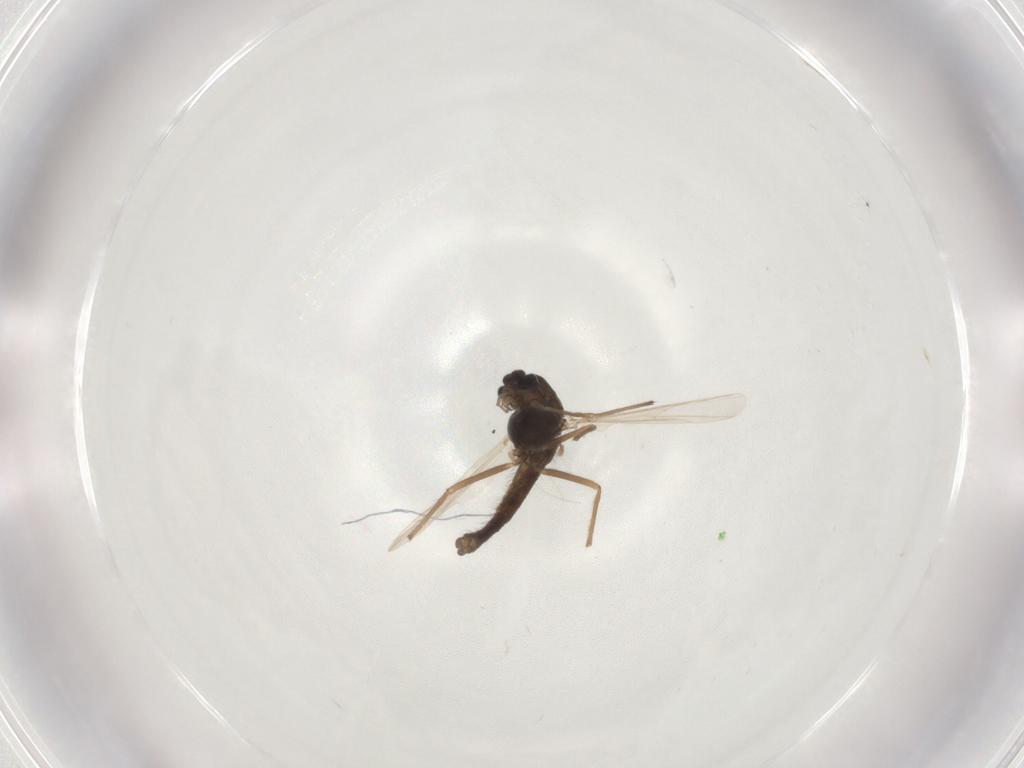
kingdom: Animalia
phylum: Arthropoda
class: Insecta
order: Diptera
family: Chironomidae
